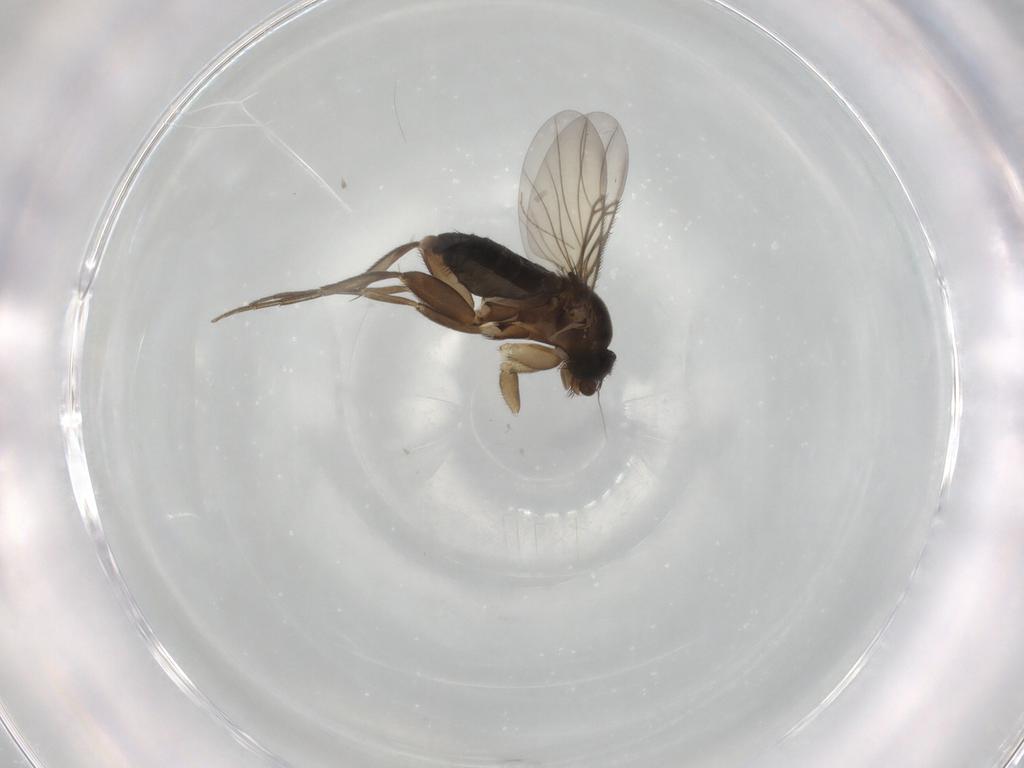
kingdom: Animalia
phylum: Arthropoda
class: Insecta
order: Diptera
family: Phoridae
